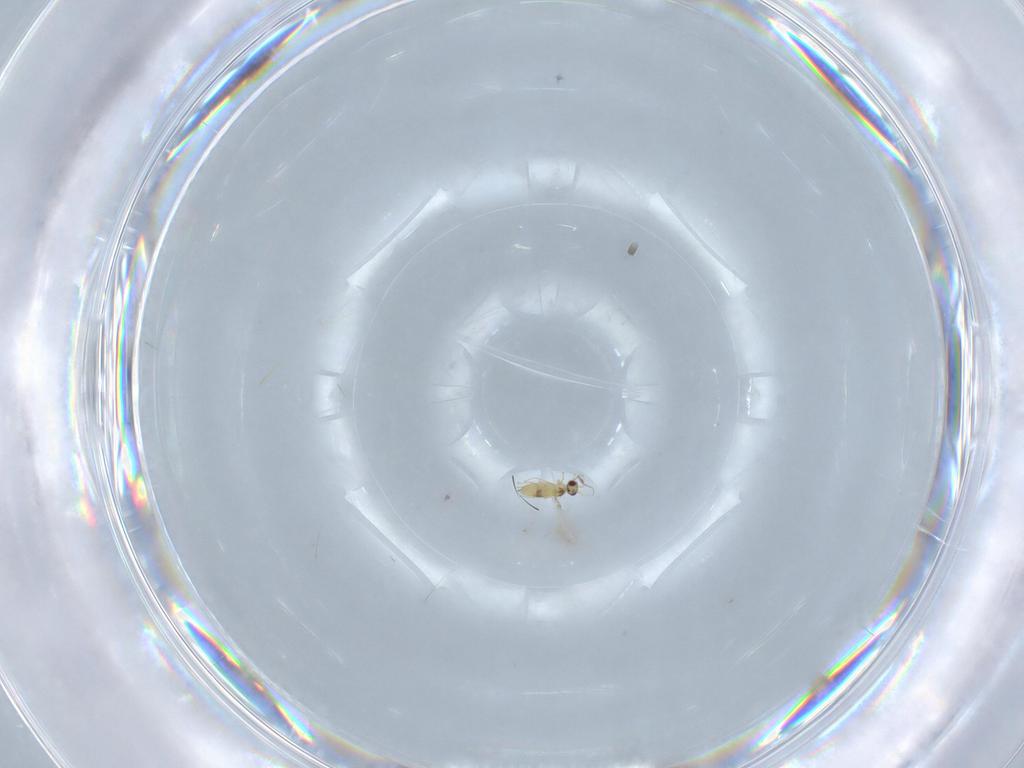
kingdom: Animalia
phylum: Arthropoda
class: Insecta
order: Hymenoptera
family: Mymaridae
